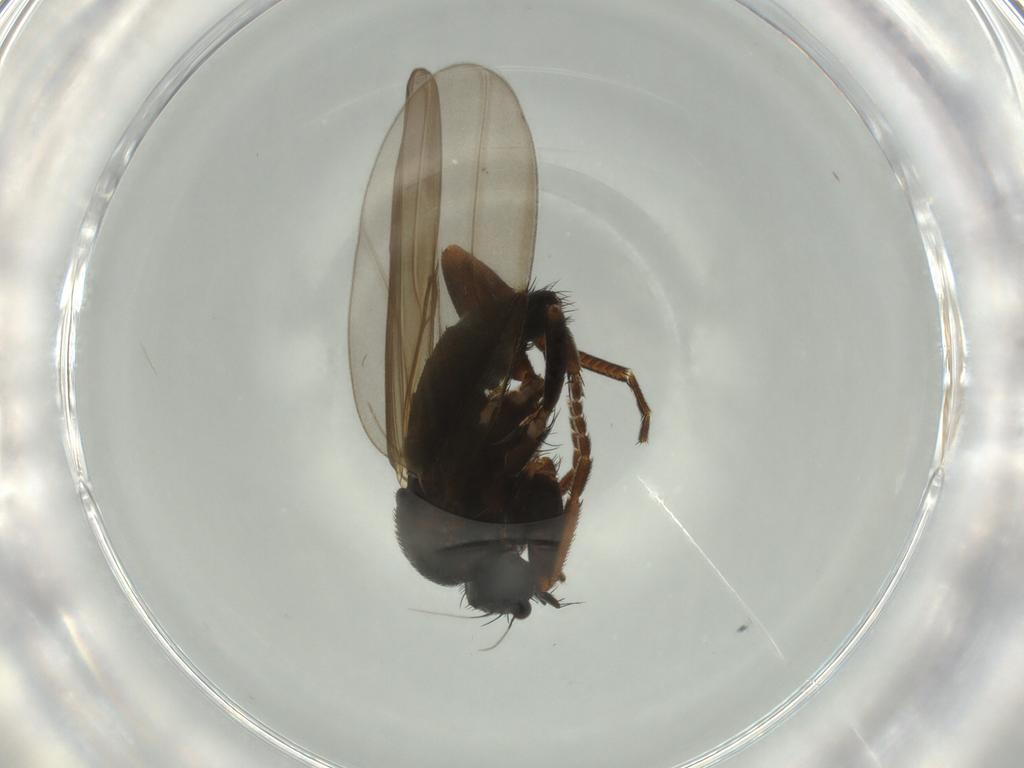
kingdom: Animalia
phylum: Arthropoda
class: Insecta
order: Diptera
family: Phoridae
